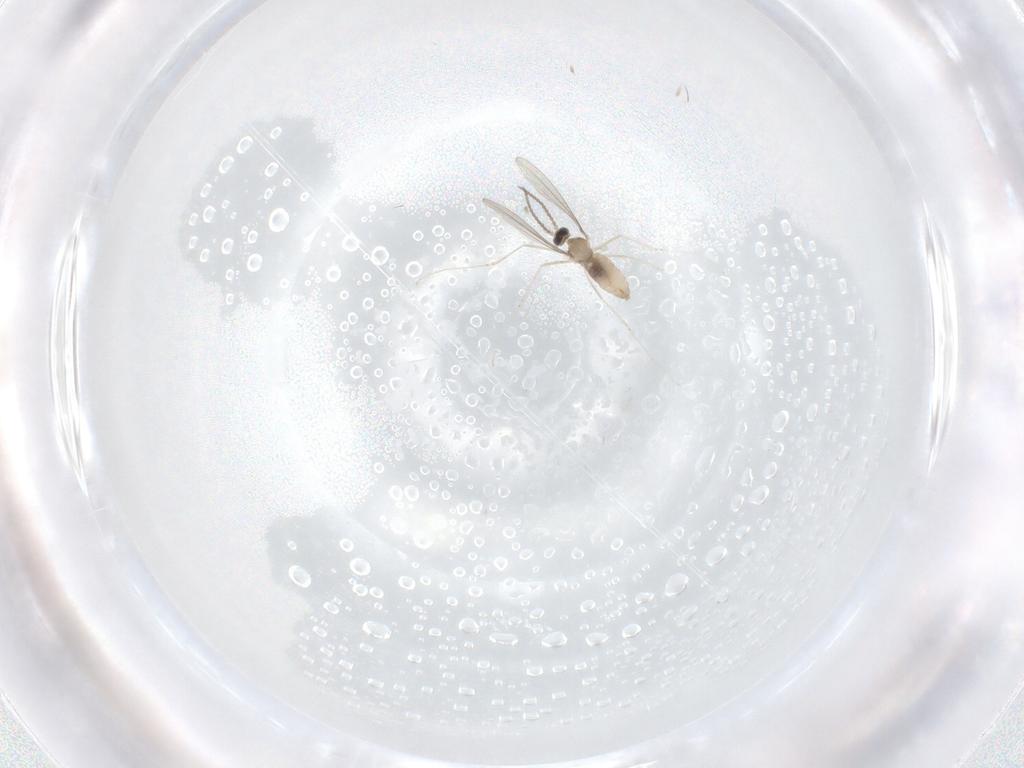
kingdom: Animalia
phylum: Arthropoda
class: Insecta
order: Diptera
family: Cecidomyiidae
